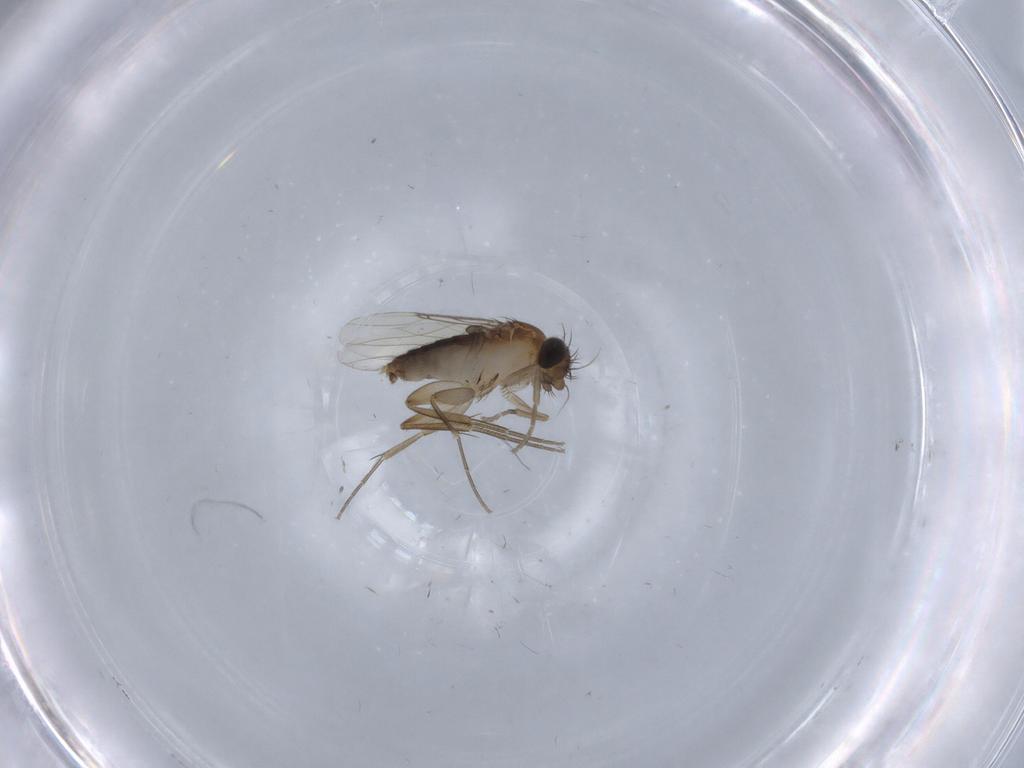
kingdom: Animalia
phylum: Arthropoda
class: Insecta
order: Diptera
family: Phoridae
